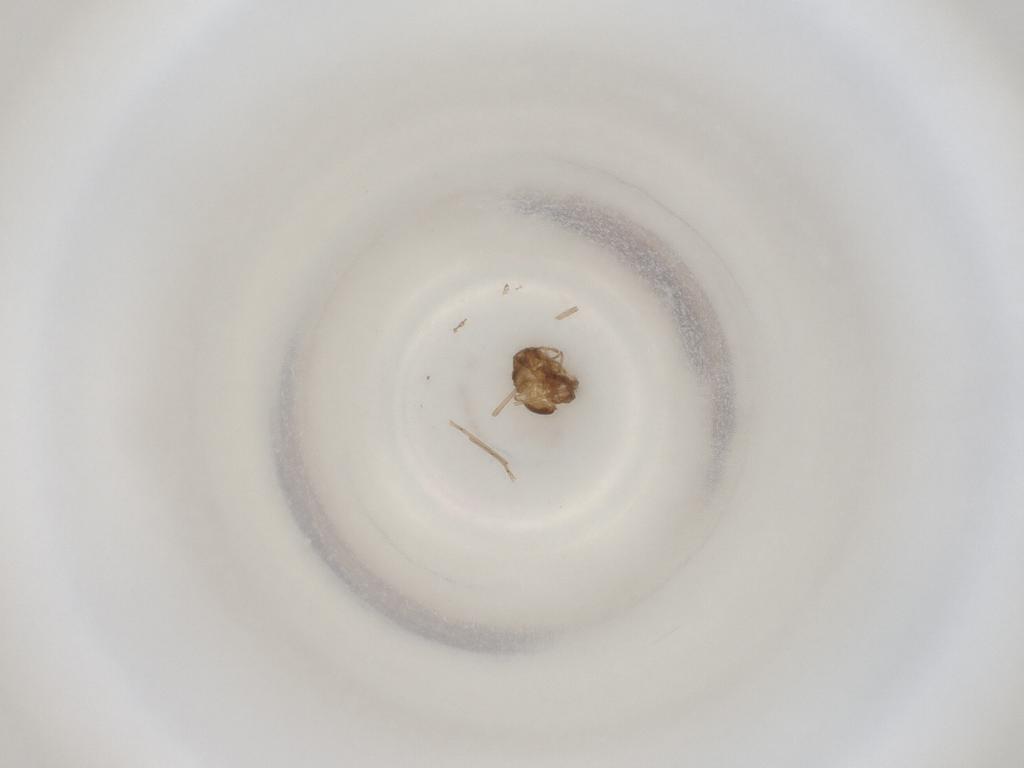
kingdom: Animalia
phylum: Arthropoda
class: Insecta
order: Diptera
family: Cecidomyiidae
